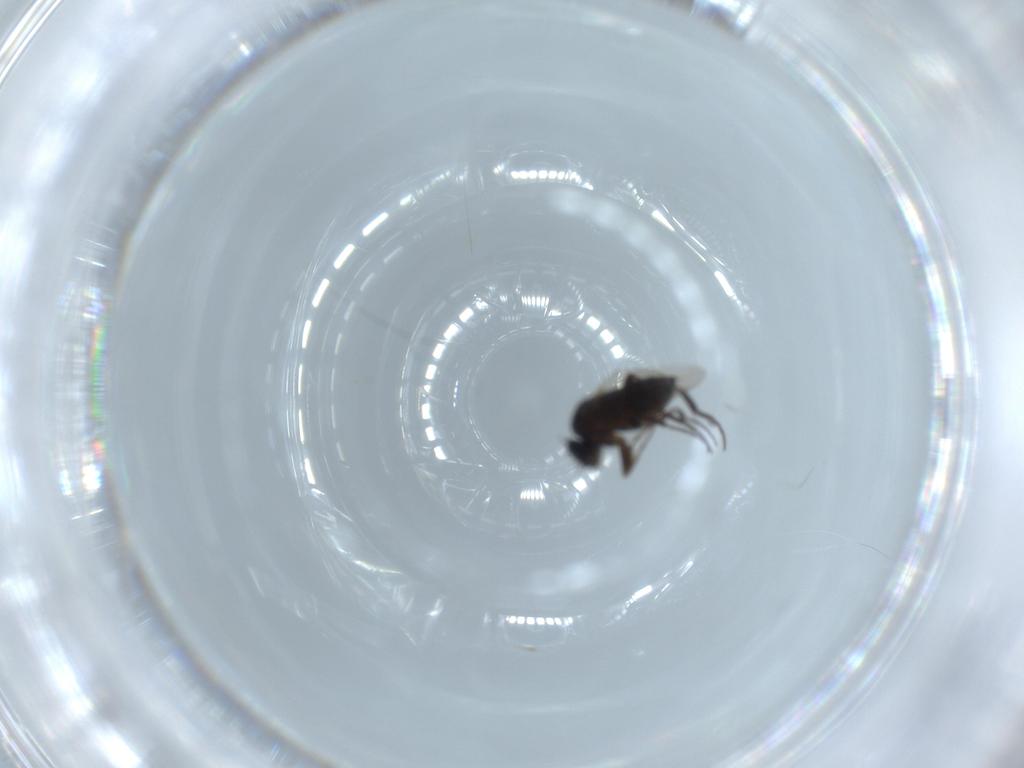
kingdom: Animalia
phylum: Arthropoda
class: Insecta
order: Diptera
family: Phoridae
